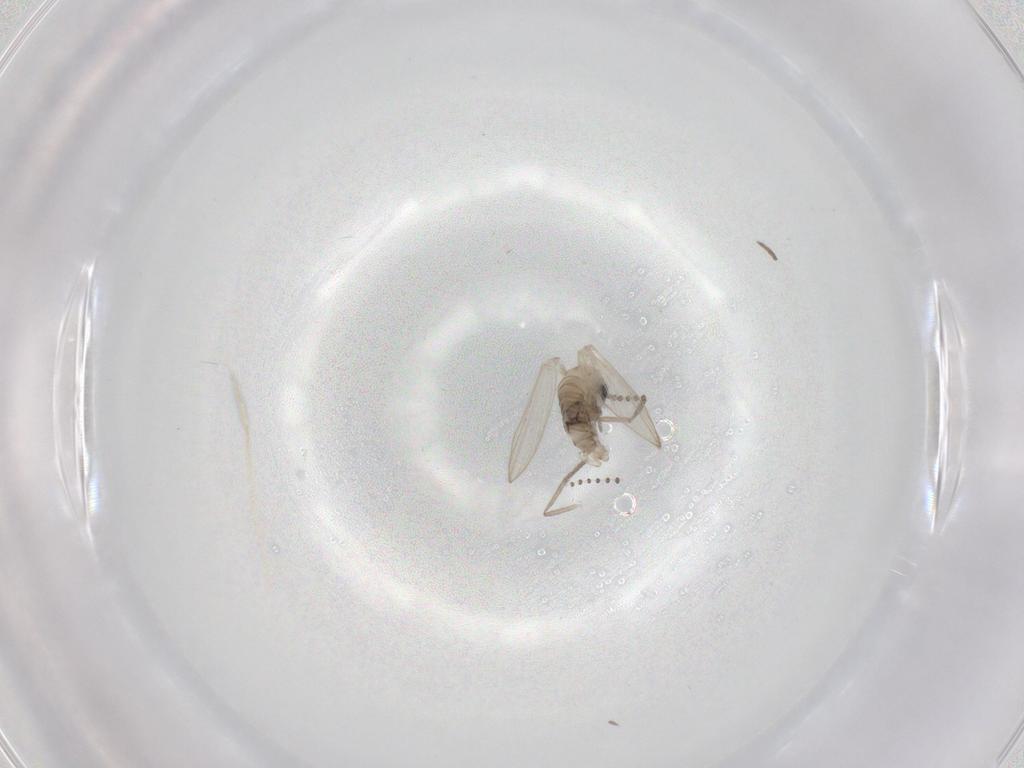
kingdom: Animalia
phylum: Arthropoda
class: Insecta
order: Diptera
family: Psychodidae
